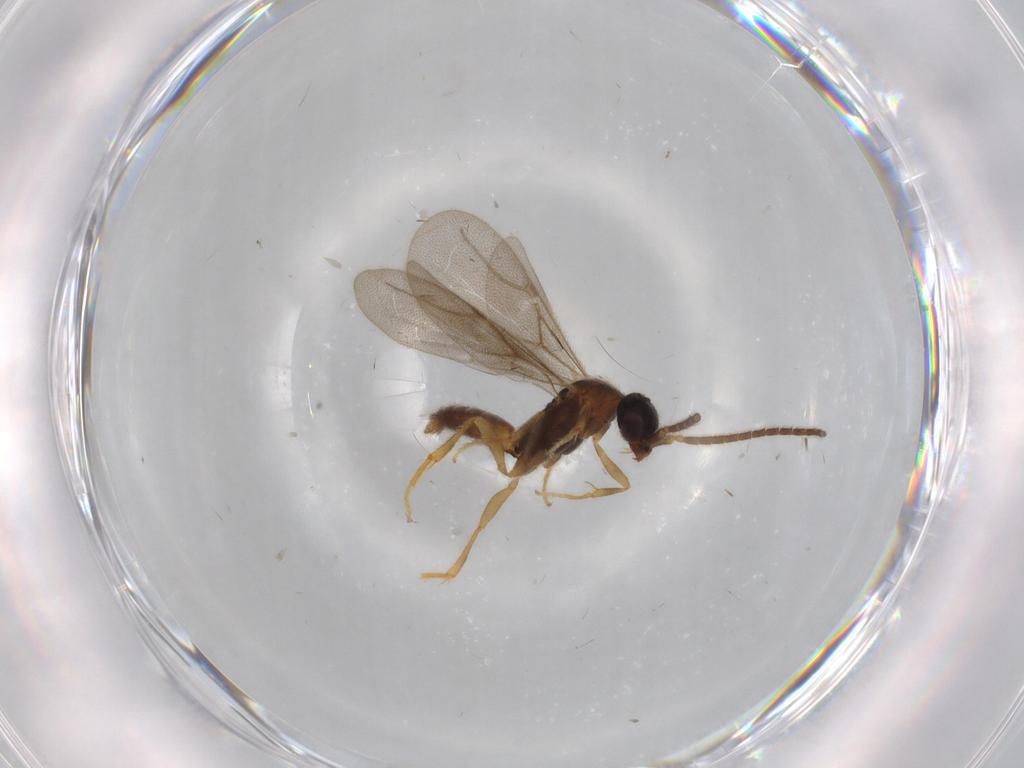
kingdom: Animalia
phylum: Arthropoda
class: Insecta
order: Hymenoptera
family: Bethylidae
